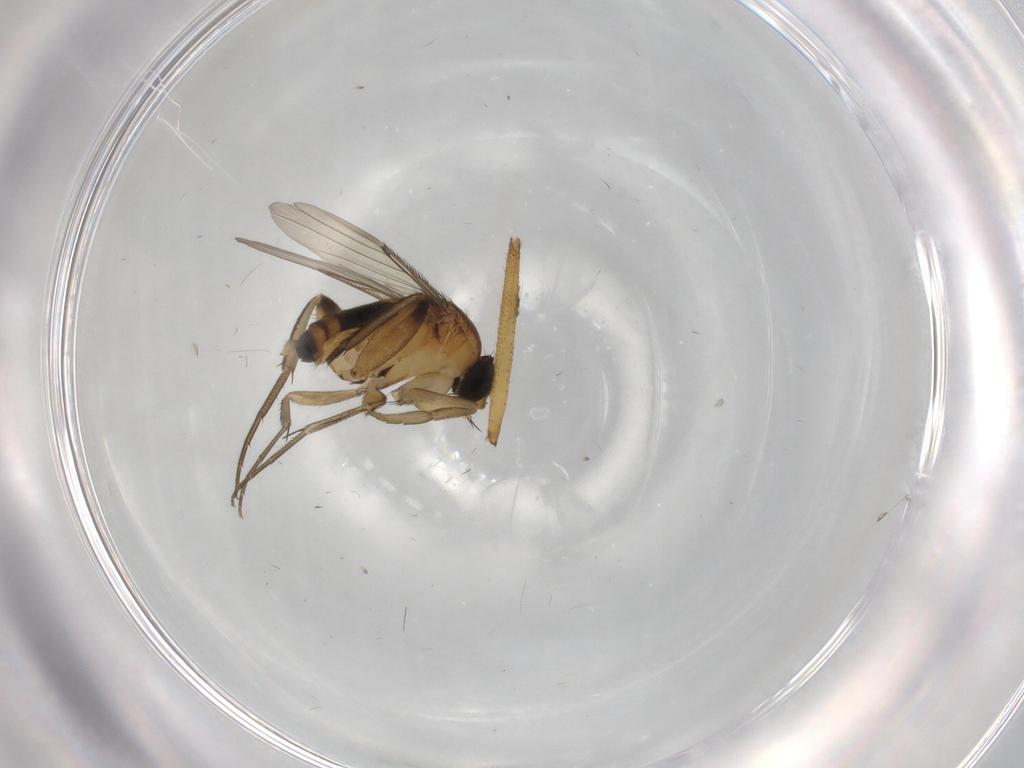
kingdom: Animalia
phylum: Arthropoda
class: Insecta
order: Diptera
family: Phoridae
